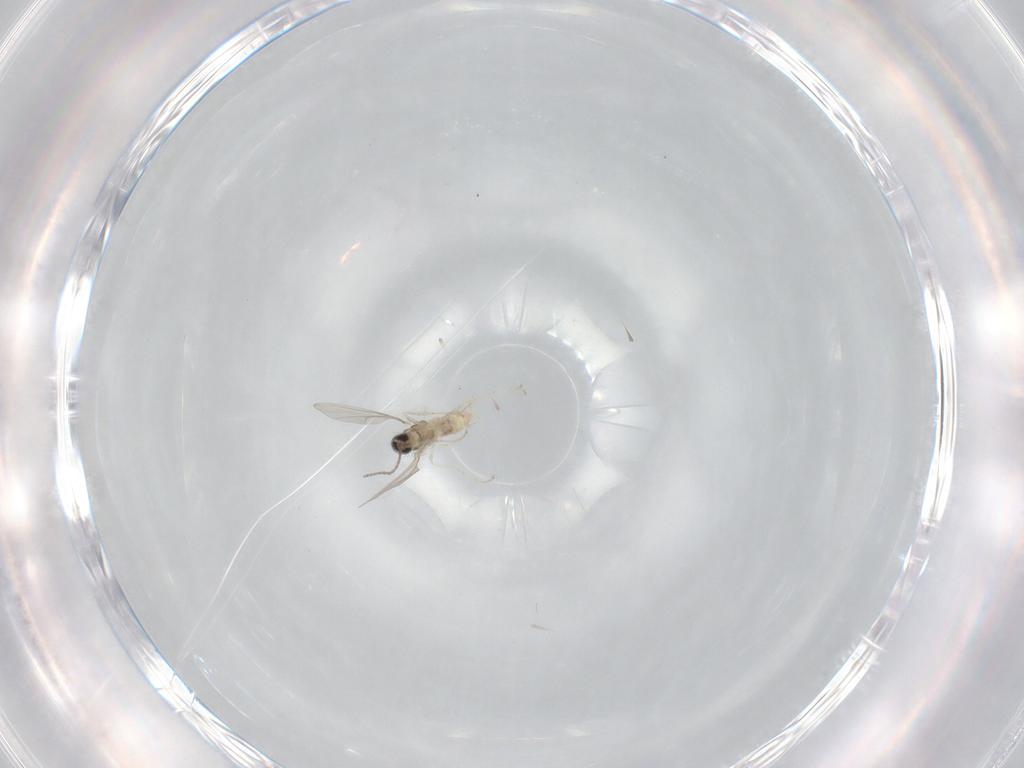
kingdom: Animalia
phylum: Arthropoda
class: Insecta
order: Diptera
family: Cecidomyiidae
